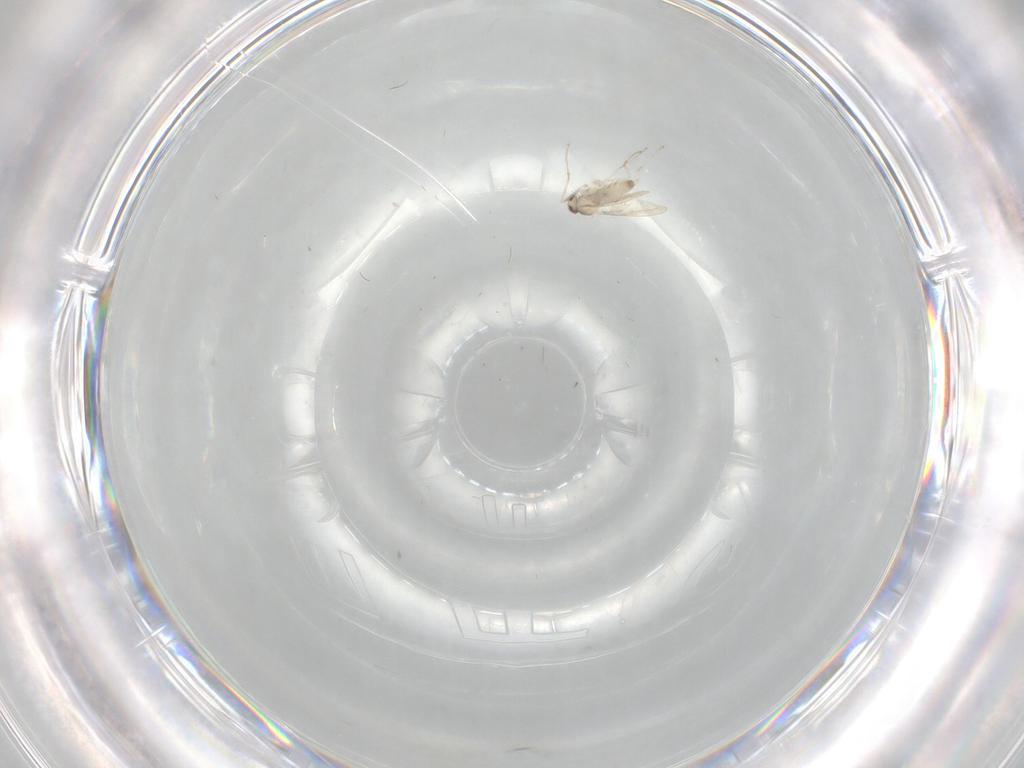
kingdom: Animalia
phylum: Arthropoda
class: Insecta
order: Diptera
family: Cecidomyiidae
